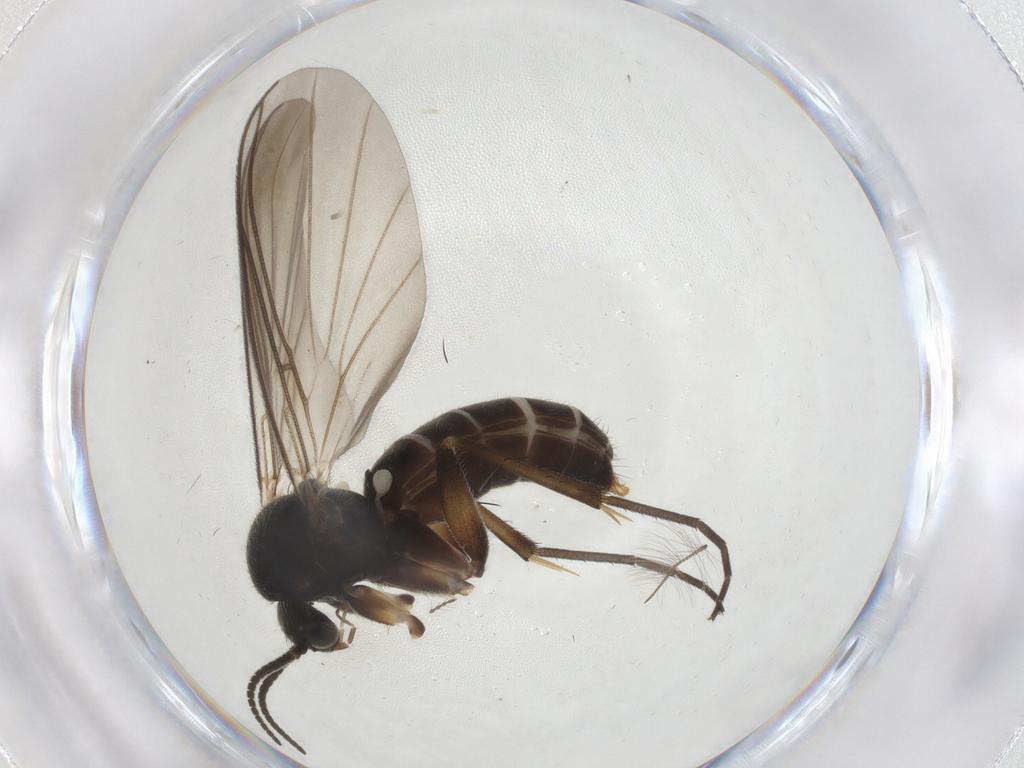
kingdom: Animalia
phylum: Arthropoda
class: Insecta
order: Diptera
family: Mycetophilidae
